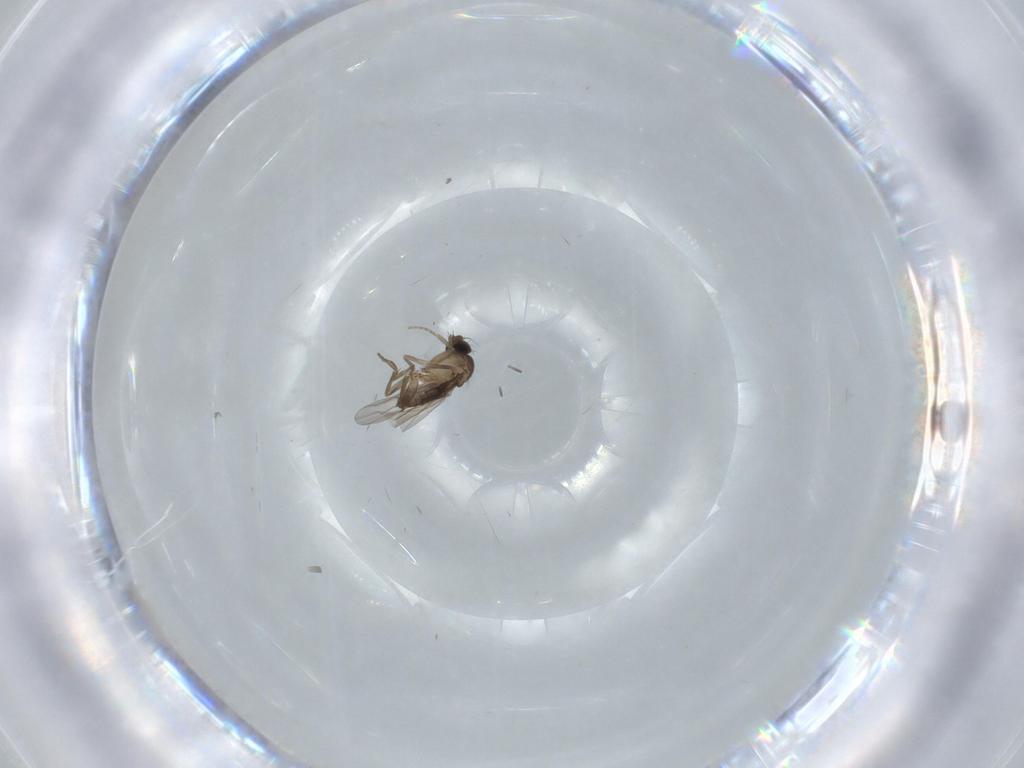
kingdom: Animalia
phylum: Arthropoda
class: Insecta
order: Diptera
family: Phoridae
